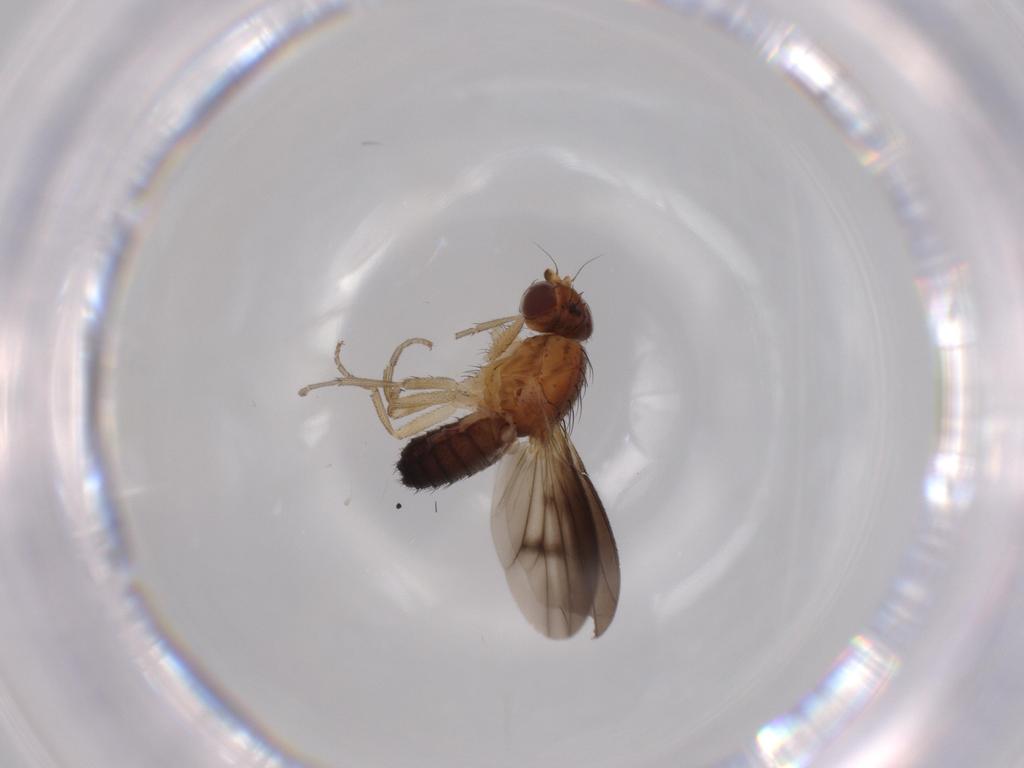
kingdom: Animalia
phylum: Arthropoda
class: Insecta
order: Diptera
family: Heleomyzidae
